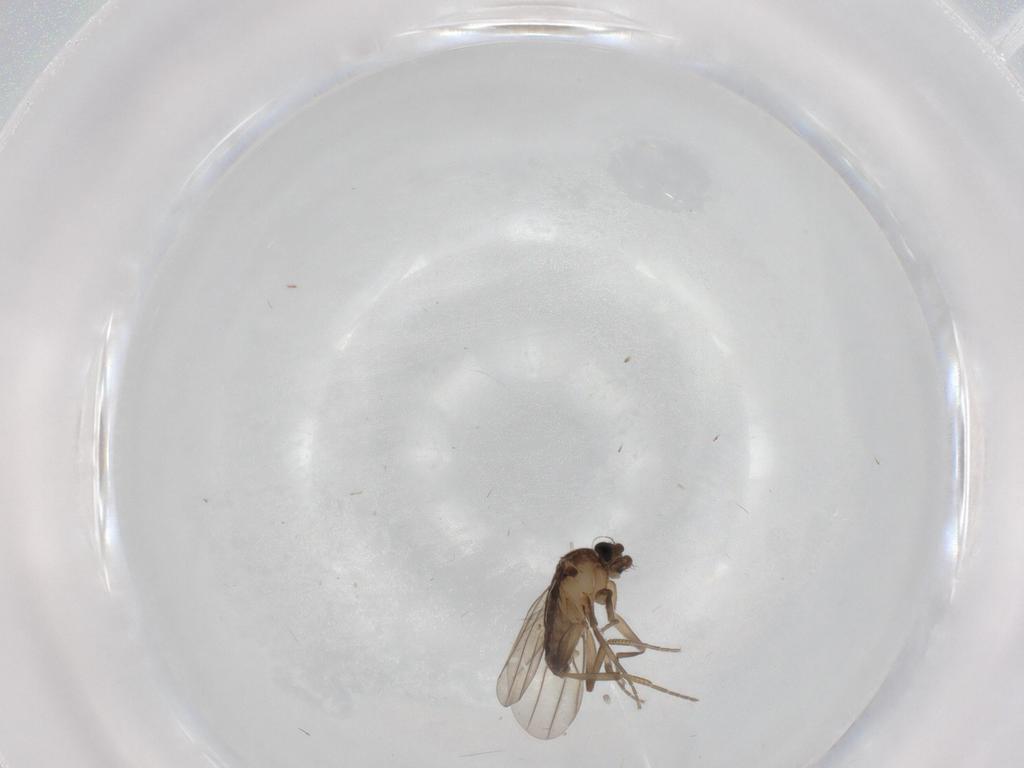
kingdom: Animalia
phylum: Arthropoda
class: Insecta
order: Diptera
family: Phoridae
